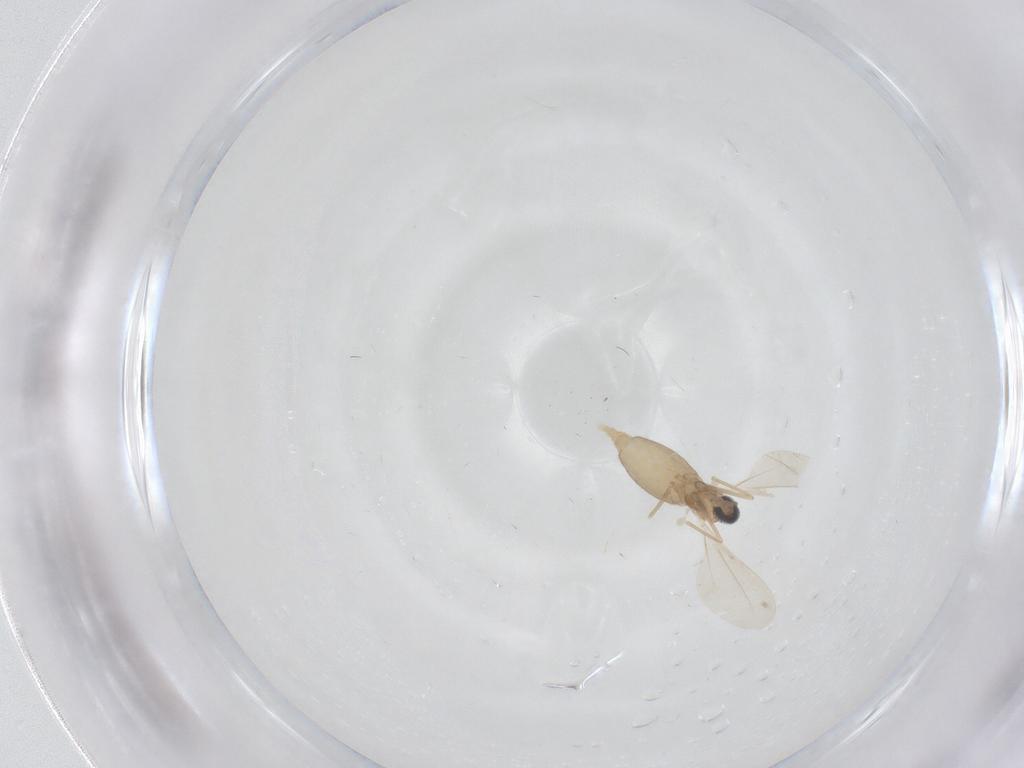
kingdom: Animalia
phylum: Arthropoda
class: Insecta
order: Diptera
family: Cecidomyiidae
